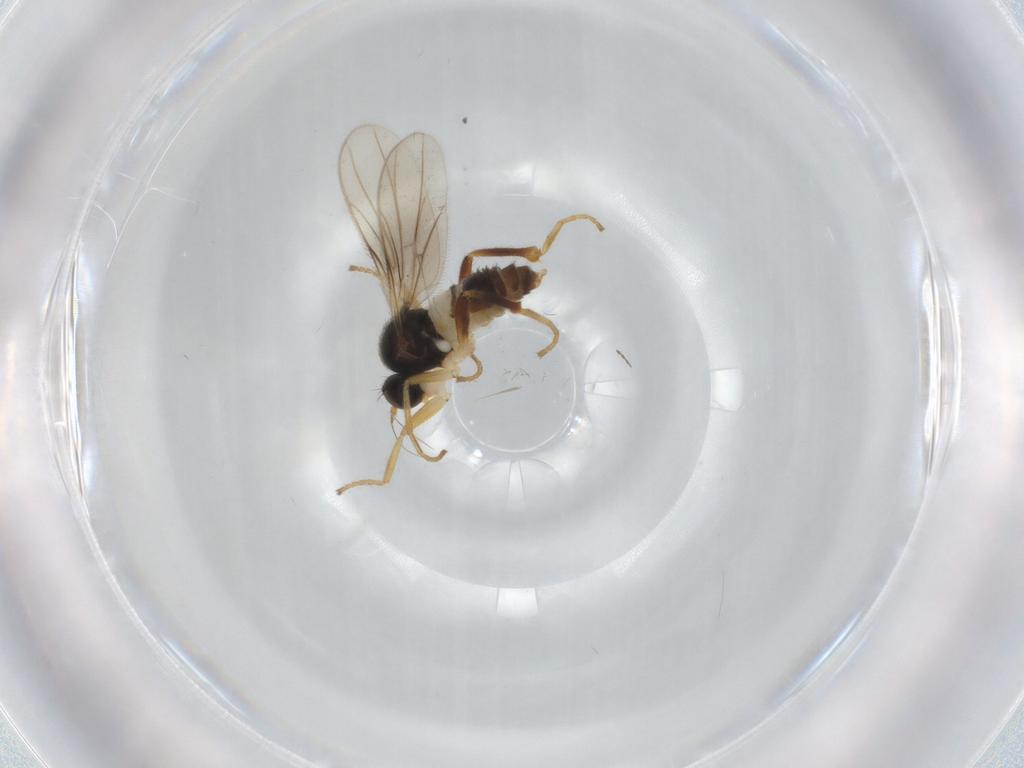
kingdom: Animalia
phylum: Arthropoda
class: Insecta
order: Diptera
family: Hybotidae
